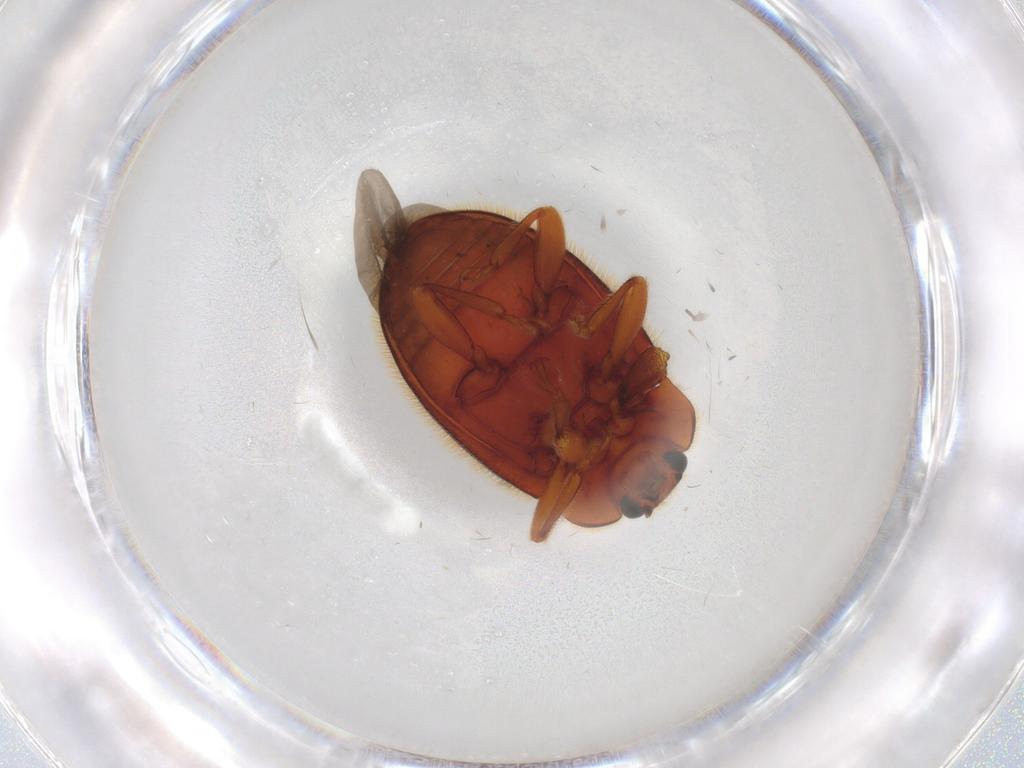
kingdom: Animalia
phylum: Arthropoda
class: Insecta
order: Coleoptera
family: Endomychidae
